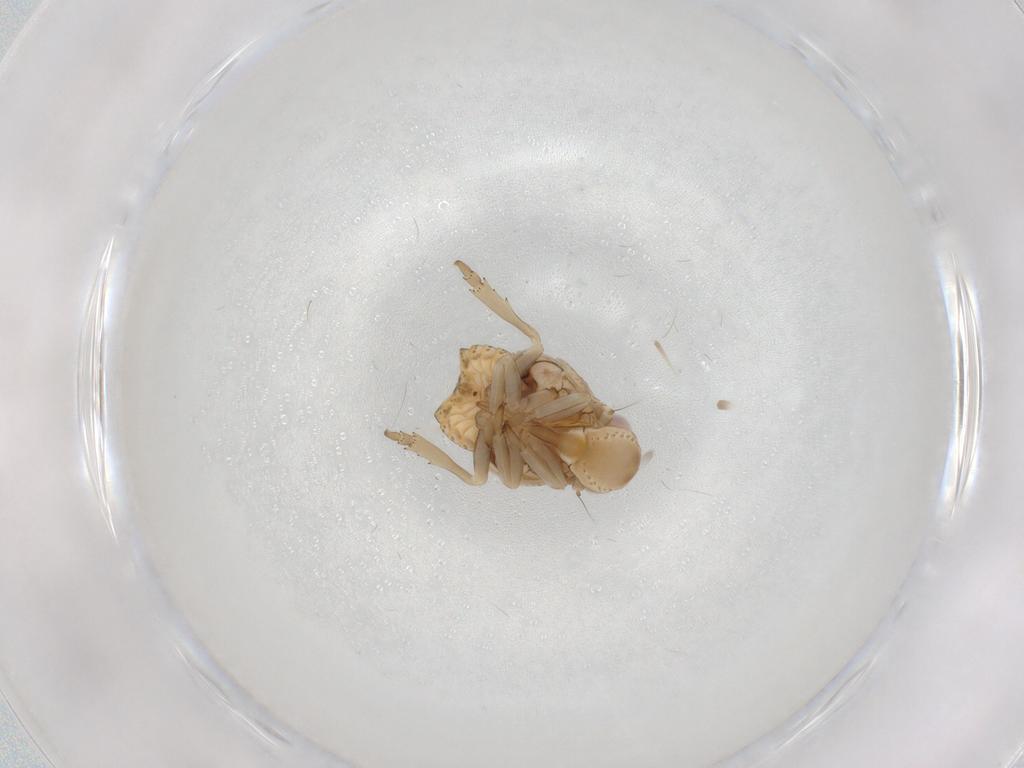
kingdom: Animalia
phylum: Arthropoda
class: Insecta
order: Hemiptera
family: Flatidae
